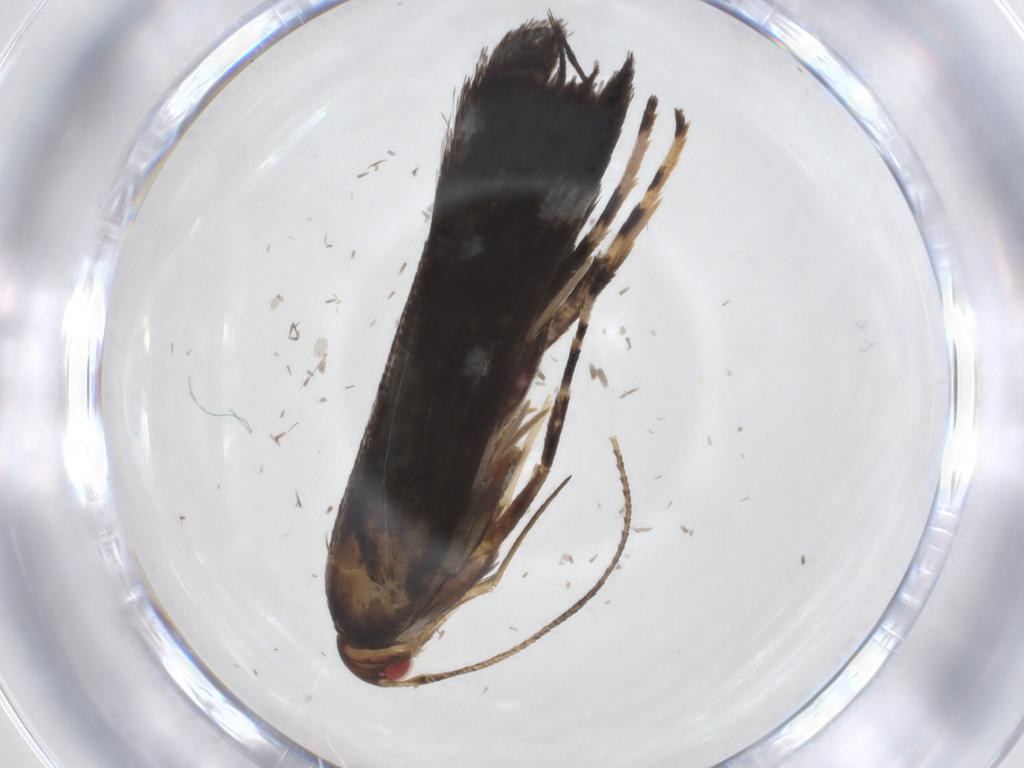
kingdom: Animalia
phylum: Arthropoda
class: Insecta
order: Lepidoptera
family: Gelechiidae
